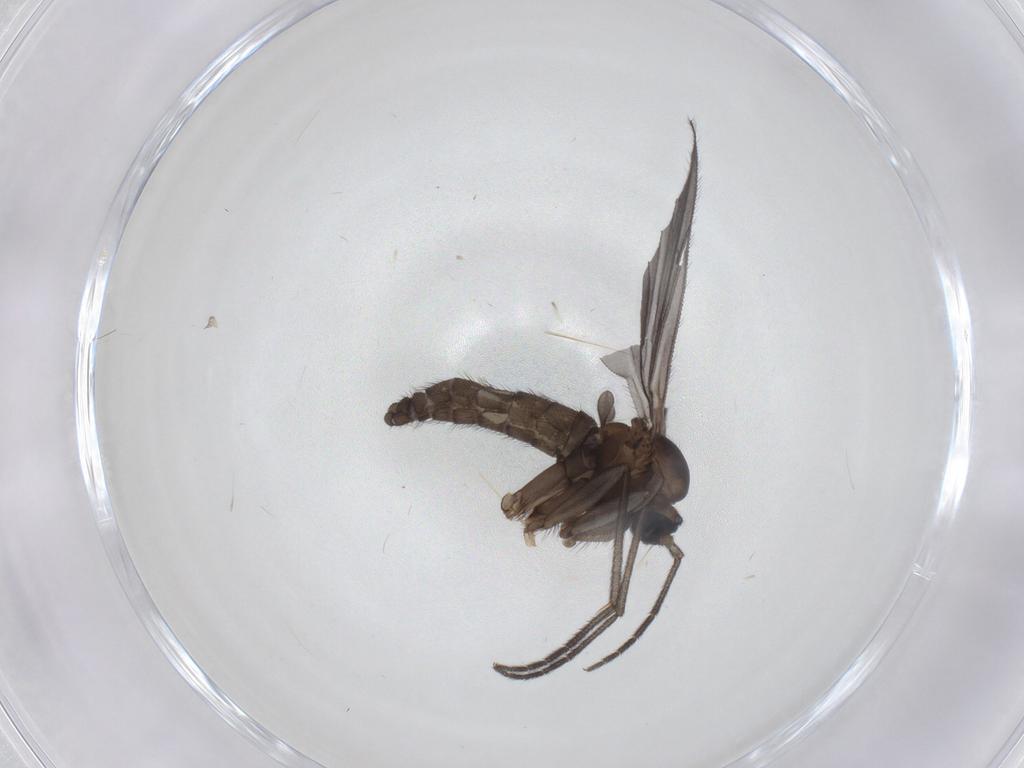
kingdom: Animalia
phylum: Arthropoda
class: Insecta
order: Diptera
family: Sciaridae
